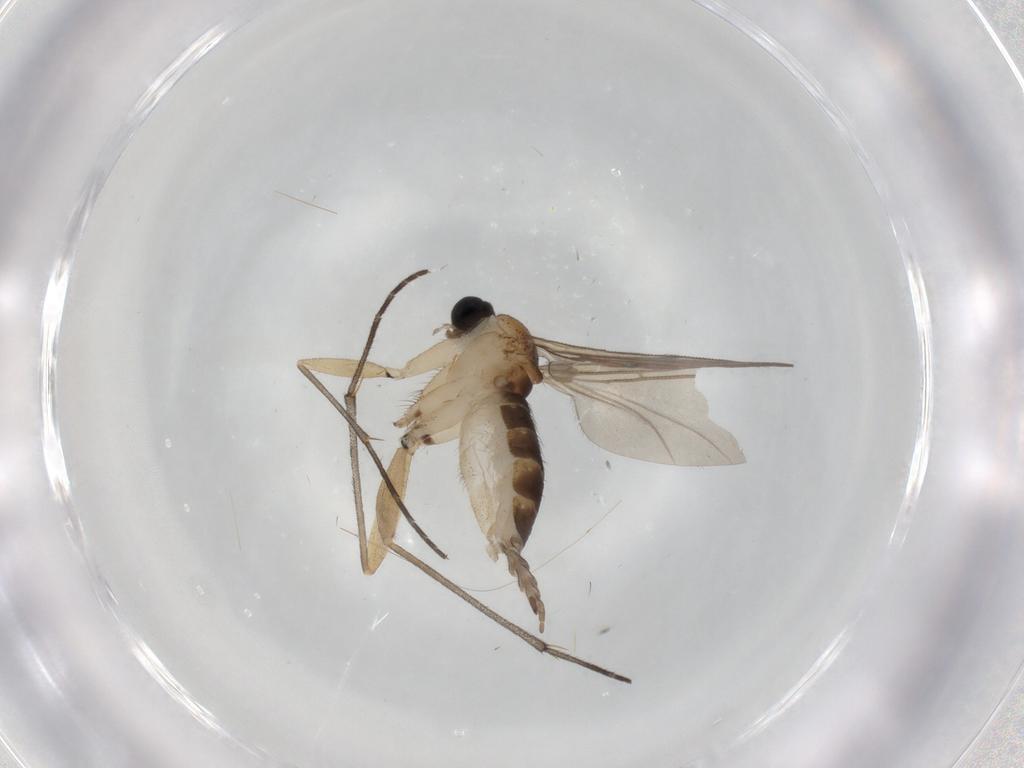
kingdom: Animalia
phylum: Arthropoda
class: Insecta
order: Diptera
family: Sciaridae
